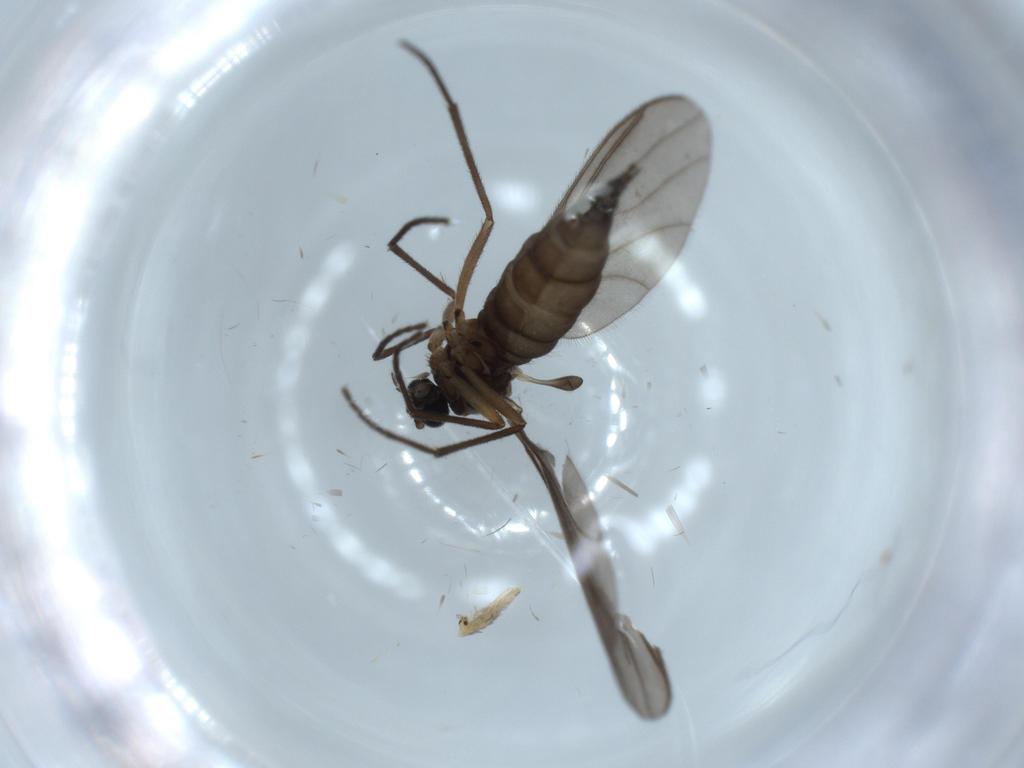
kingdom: Animalia
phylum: Arthropoda
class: Insecta
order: Diptera
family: Sciaridae
